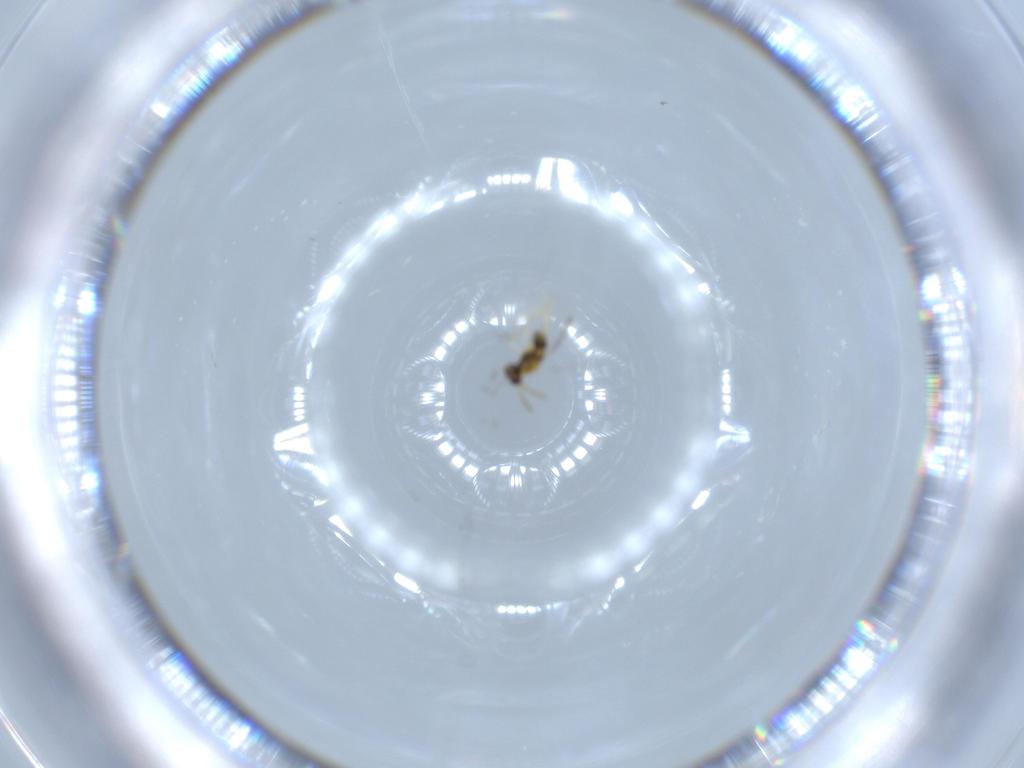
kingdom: Animalia
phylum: Arthropoda
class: Insecta
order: Hymenoptera
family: Aphelinidae
